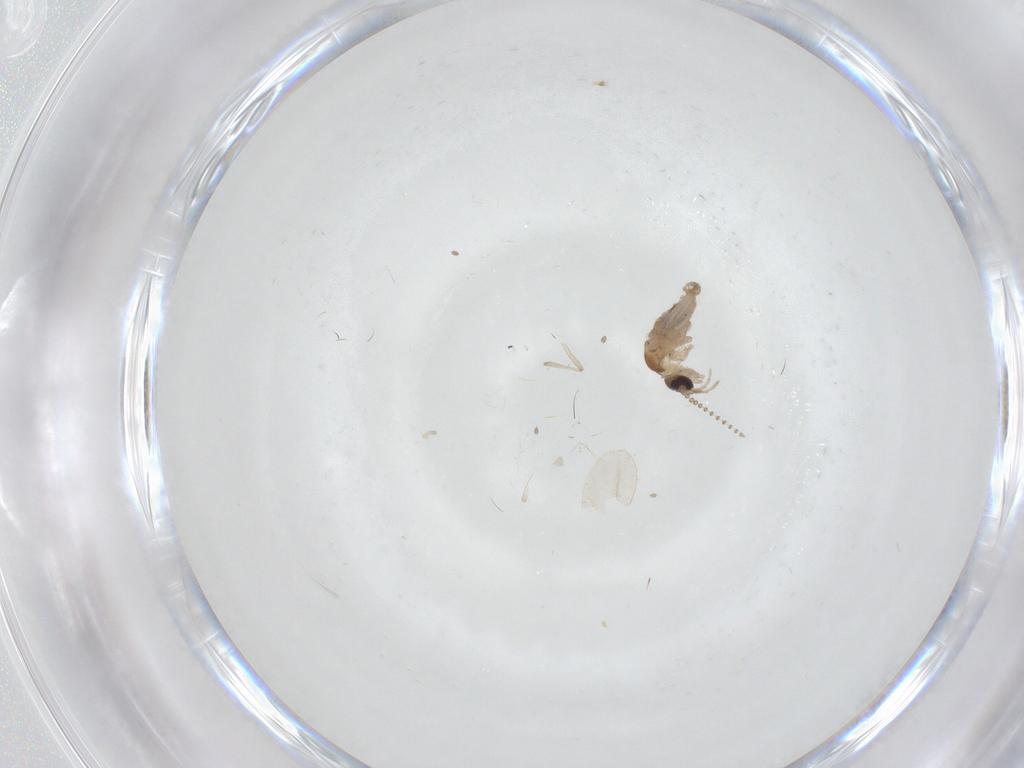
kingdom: Animalia
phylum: Arthropoda
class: Insecta
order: Diptera
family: Psychodidae
